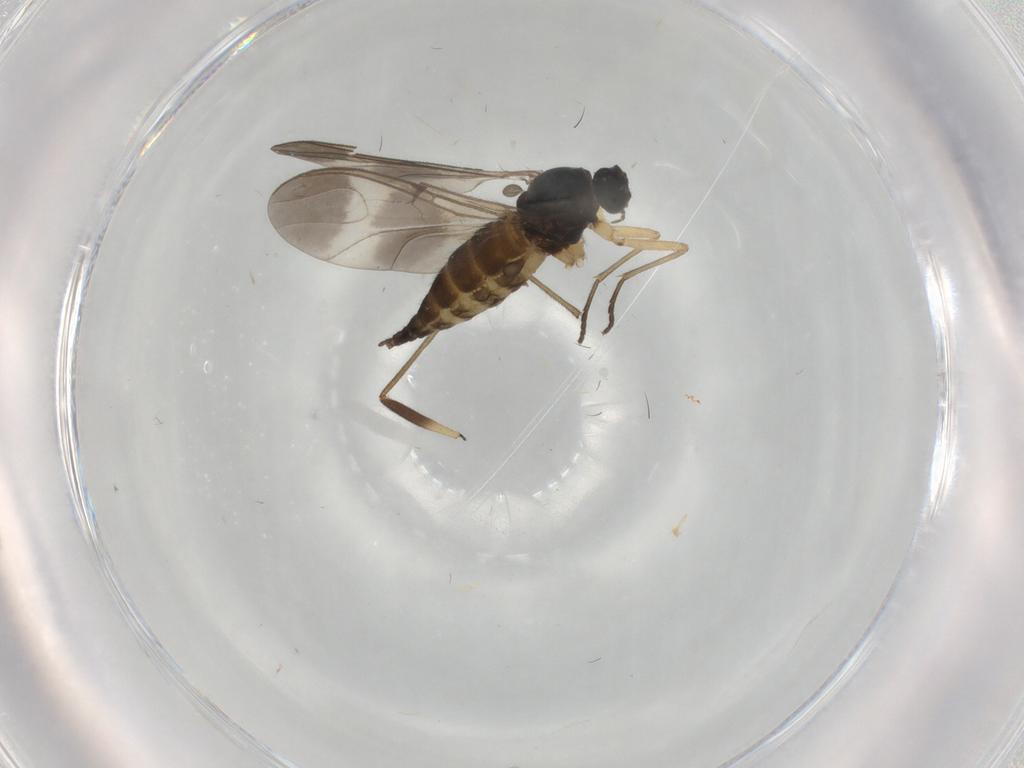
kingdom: Animalia
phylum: Arthropoda
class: Insecta
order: Diptera
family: Sciaridae
